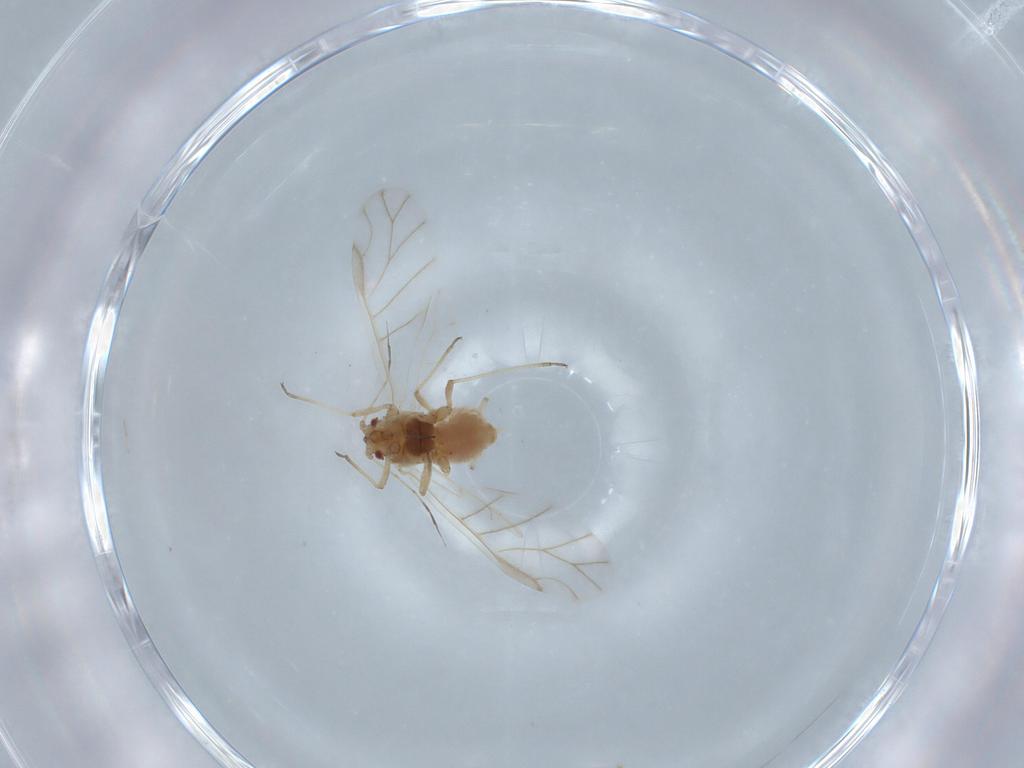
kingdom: Animalia
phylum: Arthropoda
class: Insecta
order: Hemiptera
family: Aphididae
